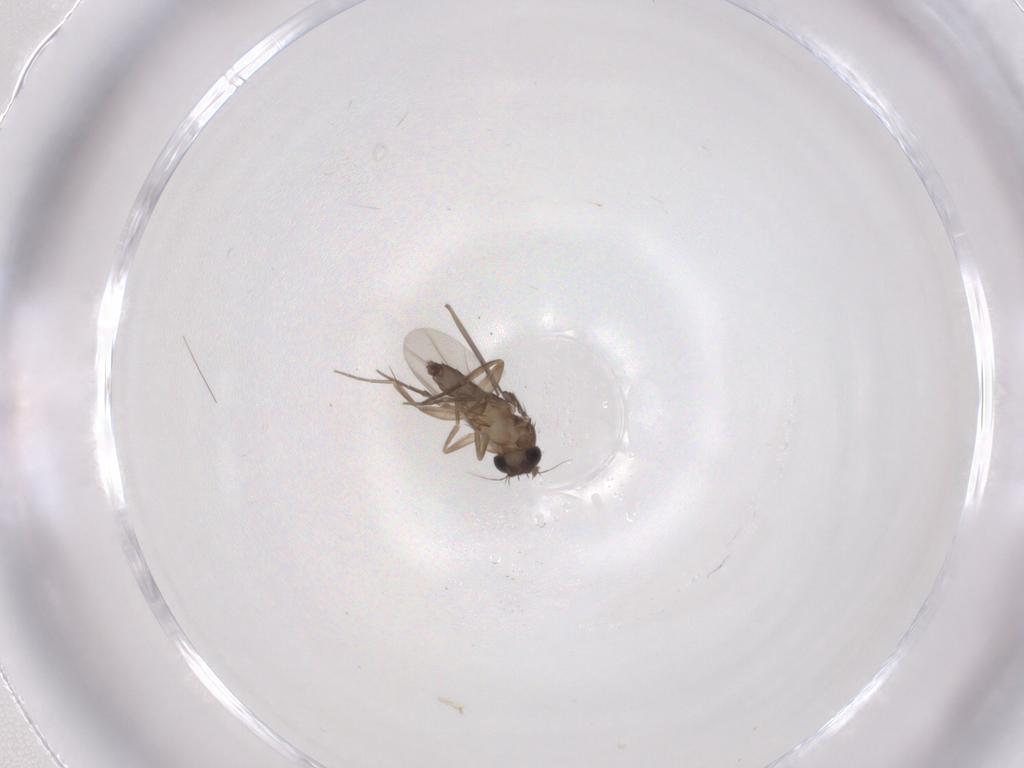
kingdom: Animalia
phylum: Arthropoda
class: Insecta
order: Diptera
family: Phoridae
